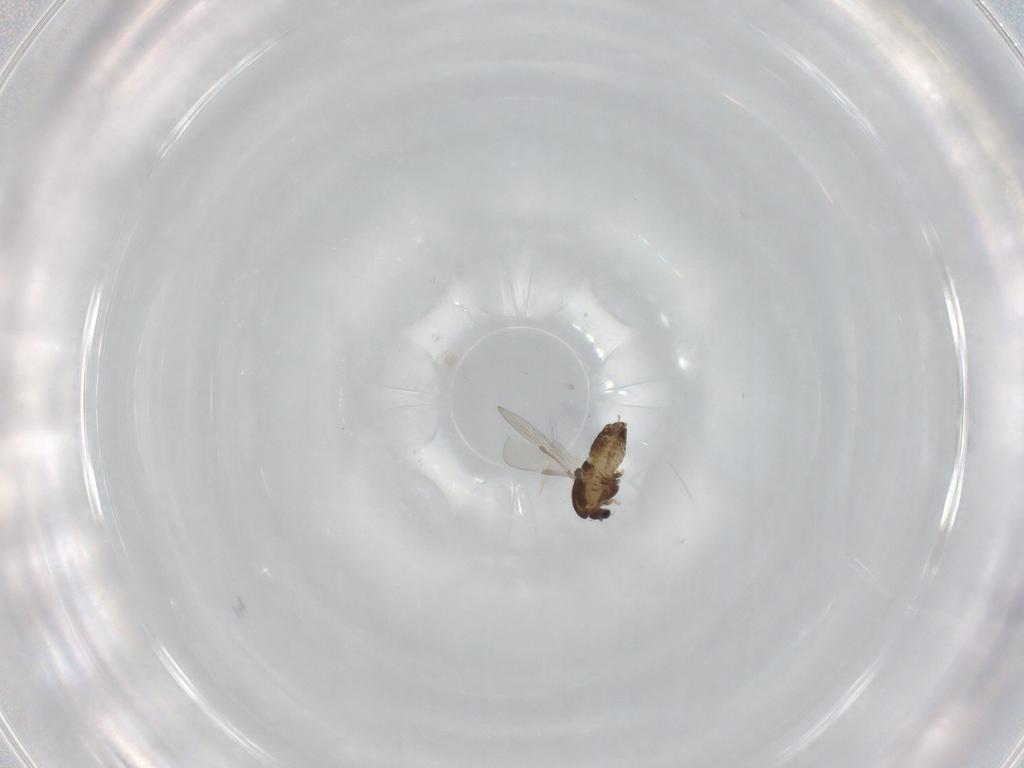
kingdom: Animalia
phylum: Arthropoda
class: Insecta
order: Diptera
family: Chironomidae
